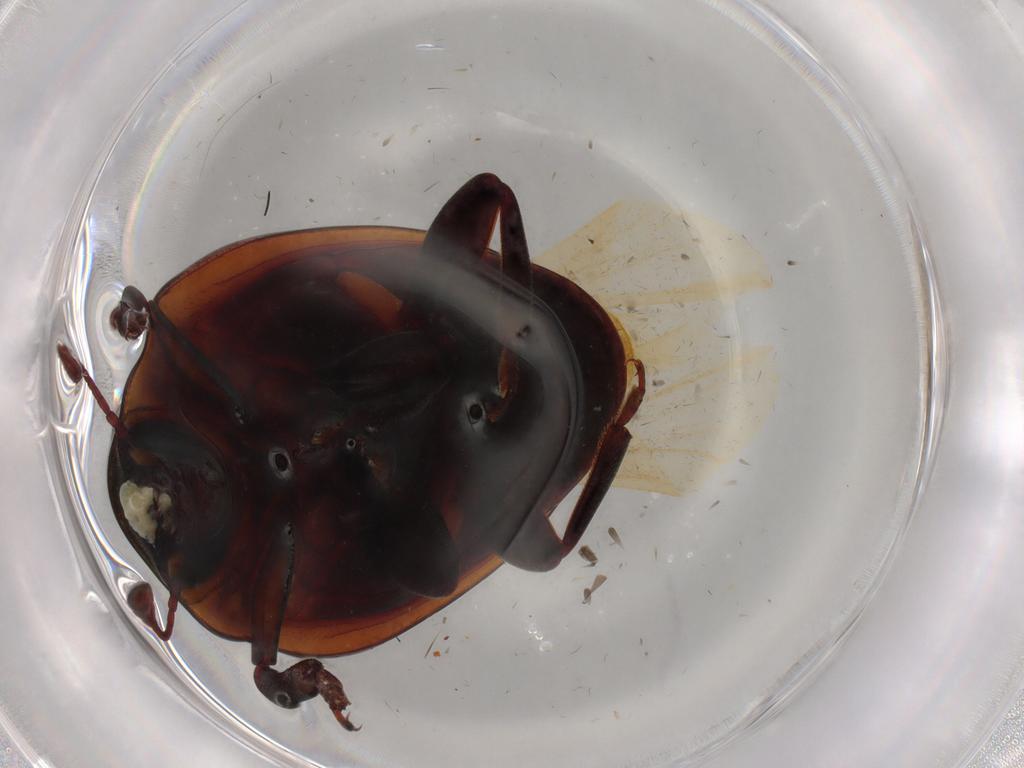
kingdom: Animalia
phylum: Arthropoda
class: Insecta
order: Coleoptera
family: Zopheridae
